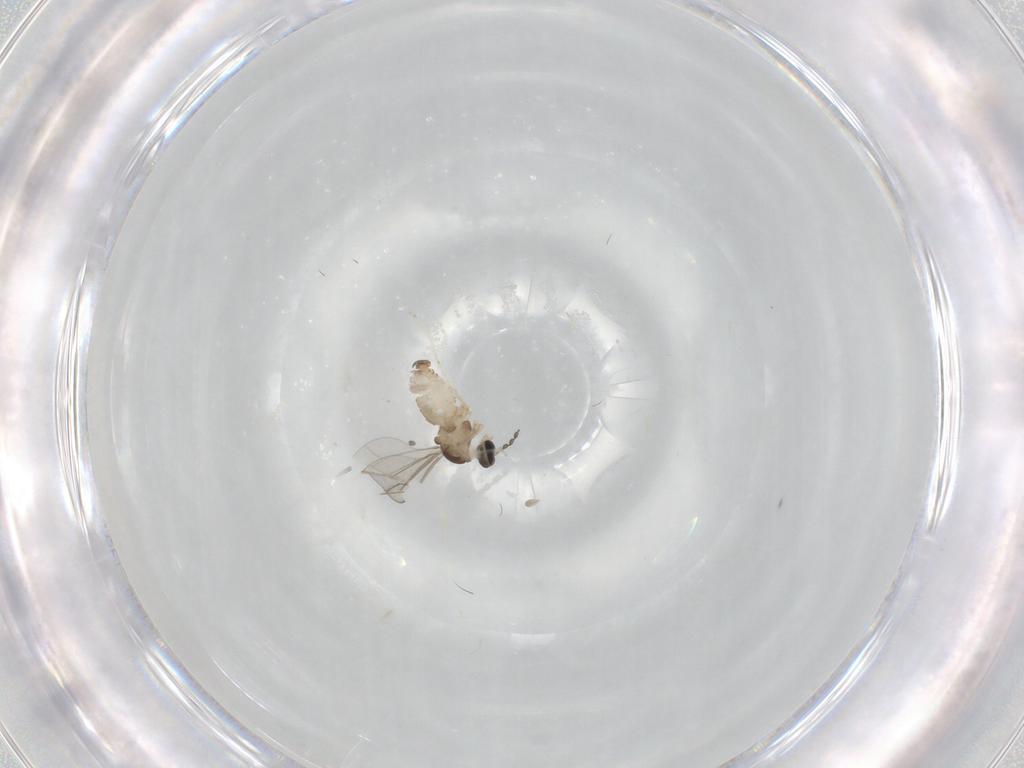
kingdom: Animalia
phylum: Arthropoda
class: Insecta
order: Diptera
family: Cecidomyiidae
